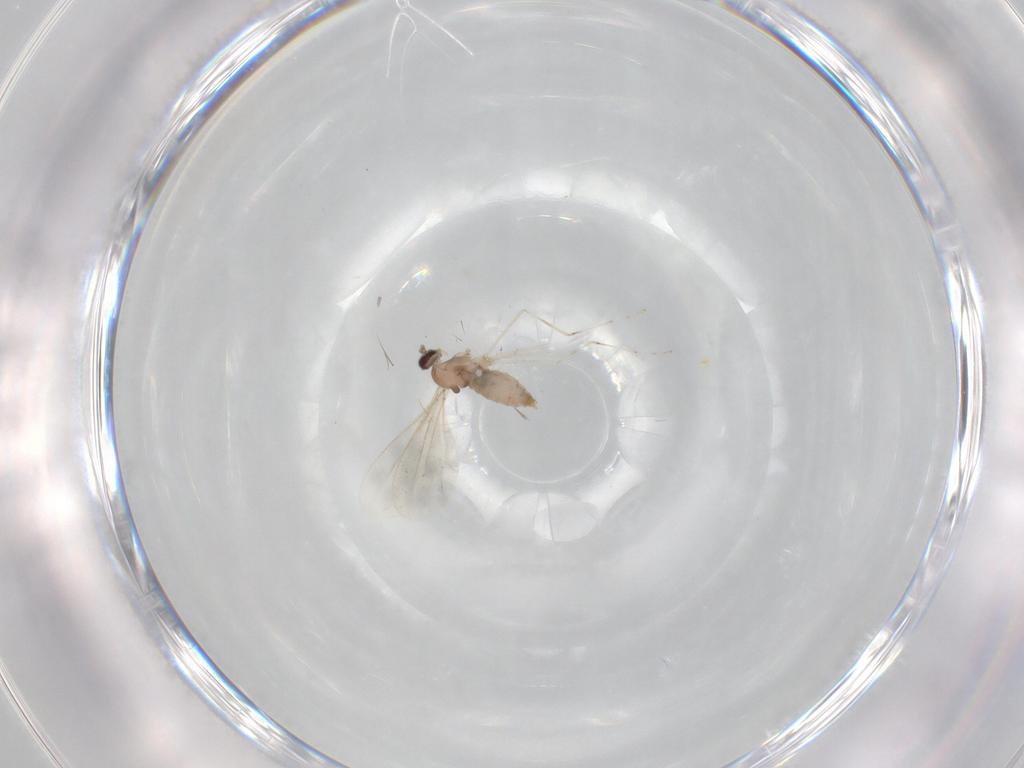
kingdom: Animalia
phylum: Arthropoda
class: Insecta
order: Diptera
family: Cecidomyiidae
